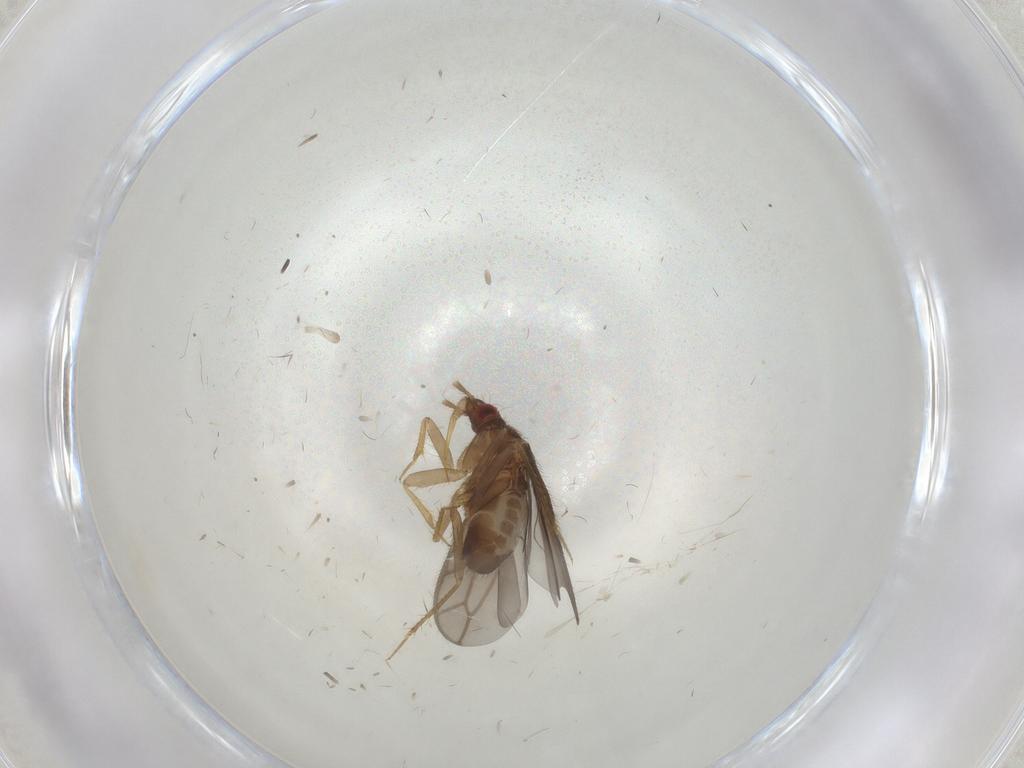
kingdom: Animalia
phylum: Arthropoda
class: Insecta
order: Hemiptera
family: Ceratocombidae
